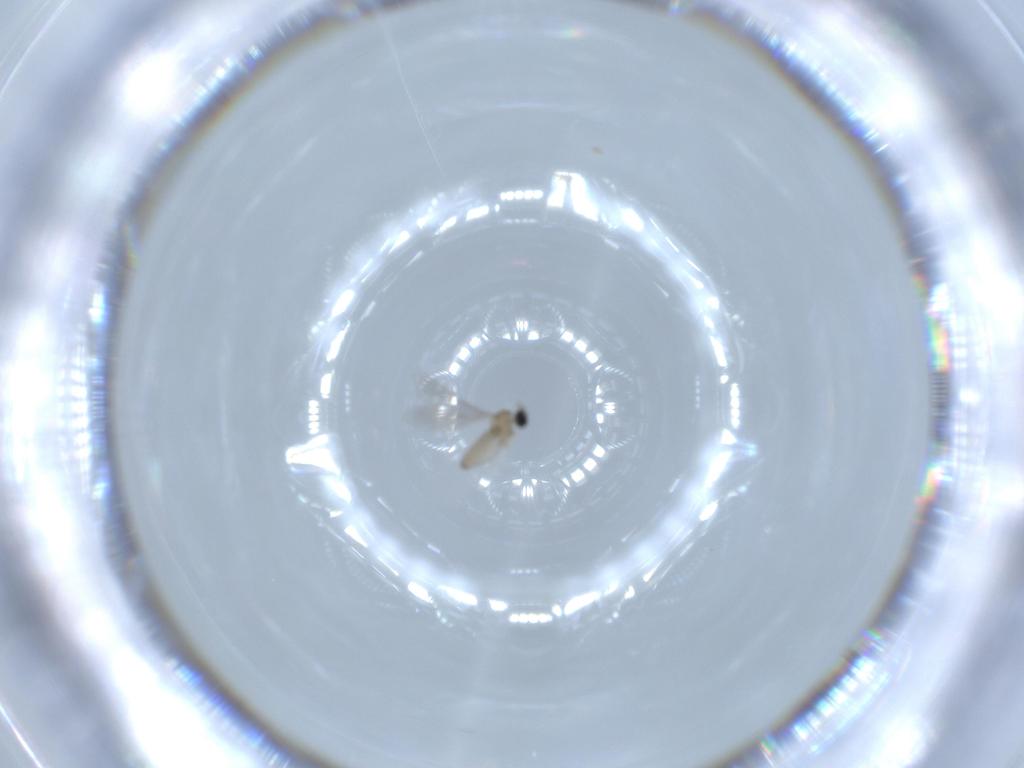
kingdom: Animalia
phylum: Arthropoda
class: Insecta
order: Diptera
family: Cecidomyiidae
